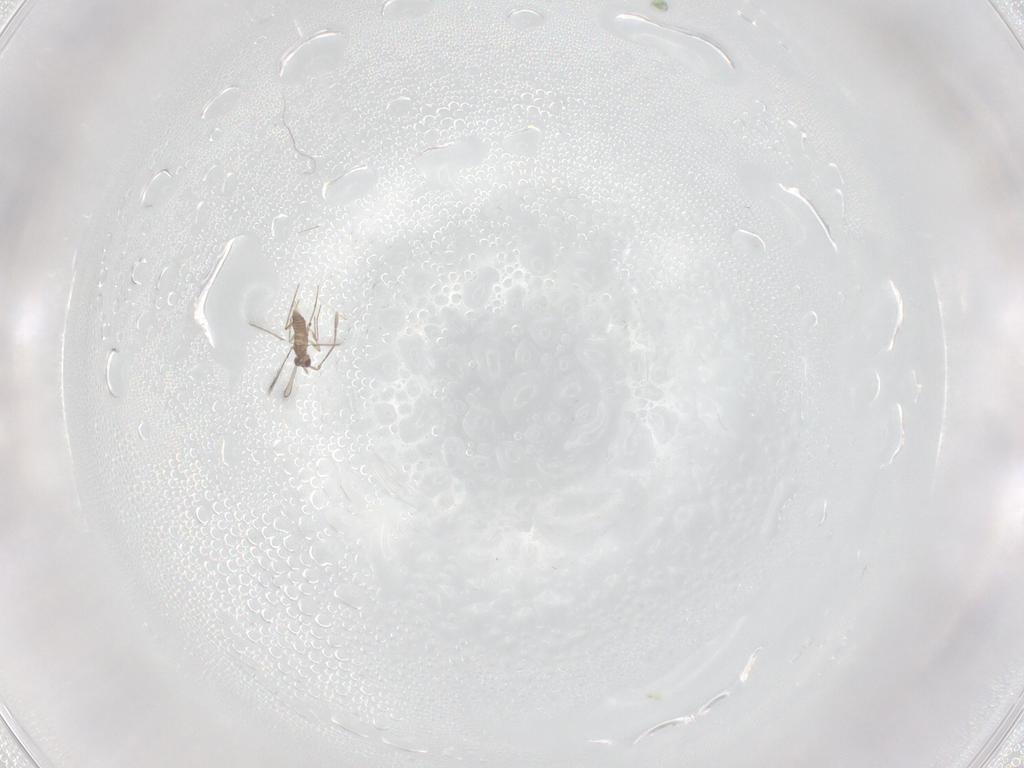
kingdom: Animalia
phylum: Arthropoda
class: Insecta
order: Hymenoptera
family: Mymaridae
